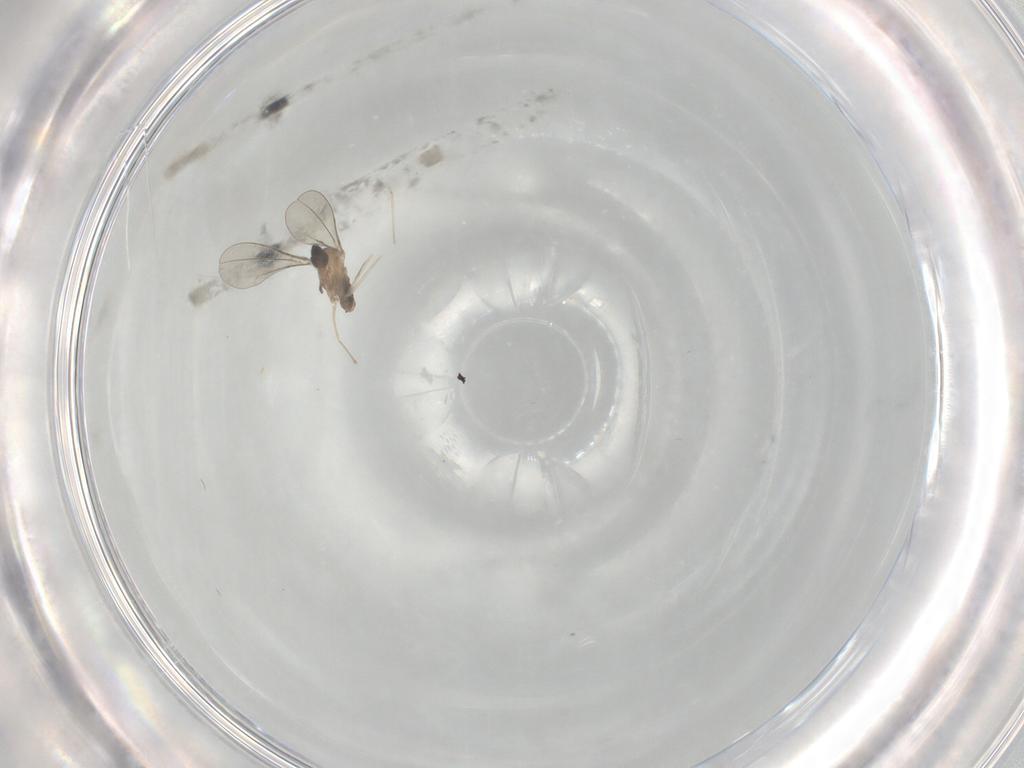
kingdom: Animalia
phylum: Arthropoda
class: Insecta
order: Diptera
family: Cecidomyiidae
